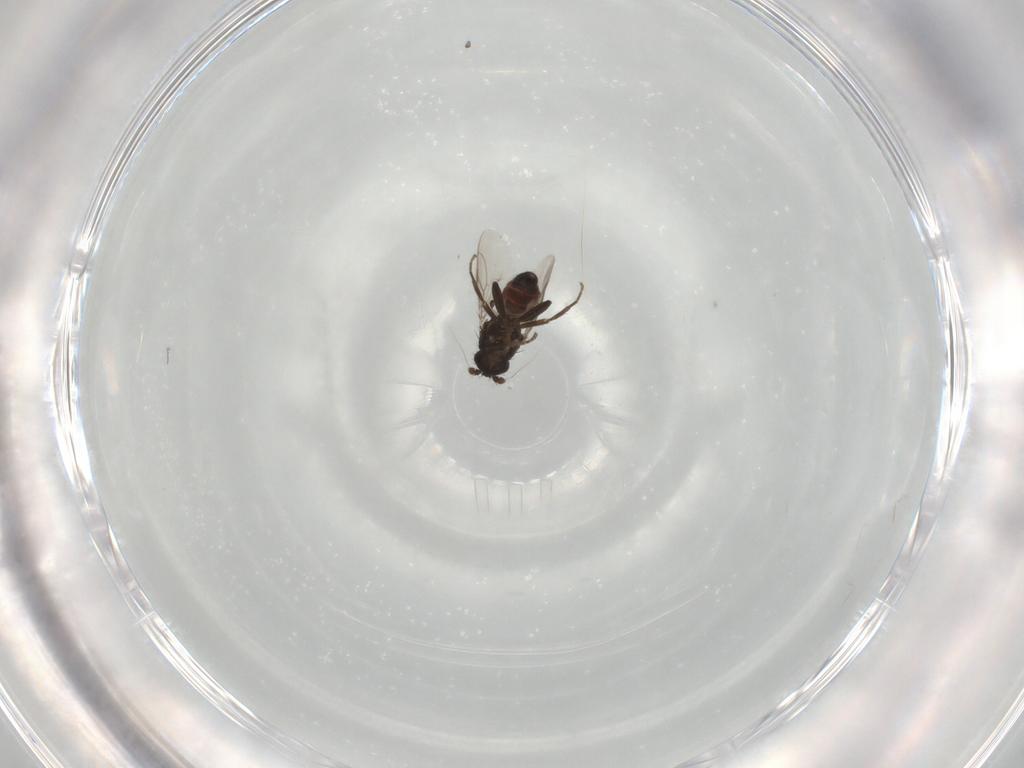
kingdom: Animalia
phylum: Arthropoda
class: Insecta
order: Diptera
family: Psychodidae
